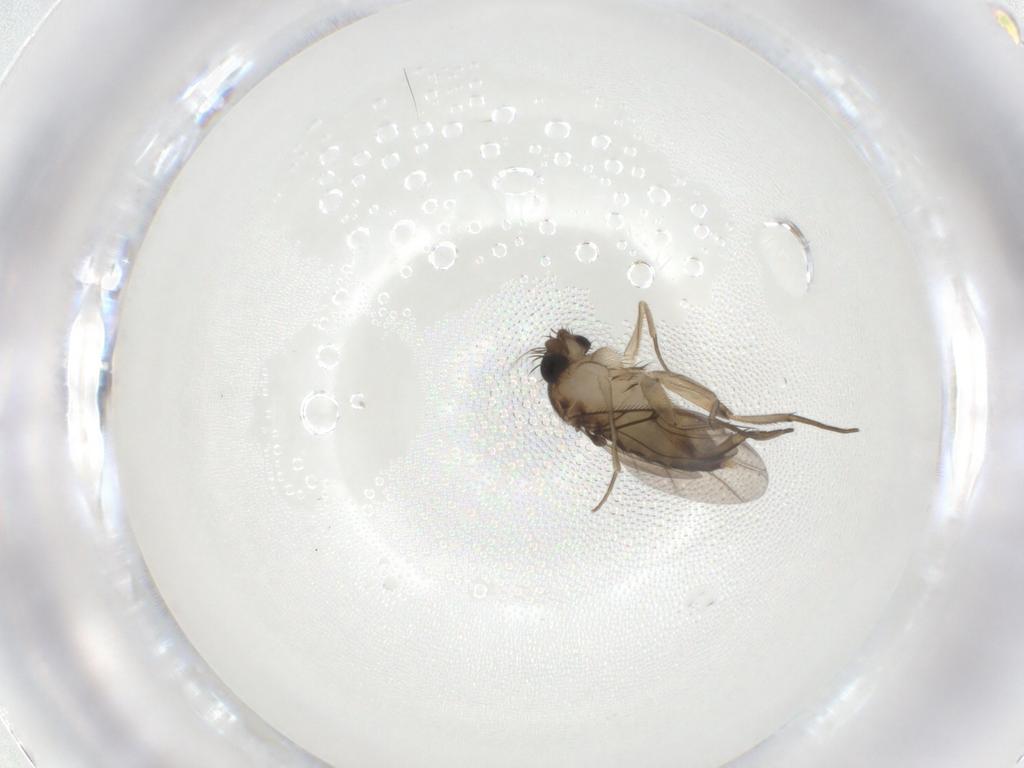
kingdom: Animalia
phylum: Arthropoda
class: Insecta
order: Diptera
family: Phoridae
